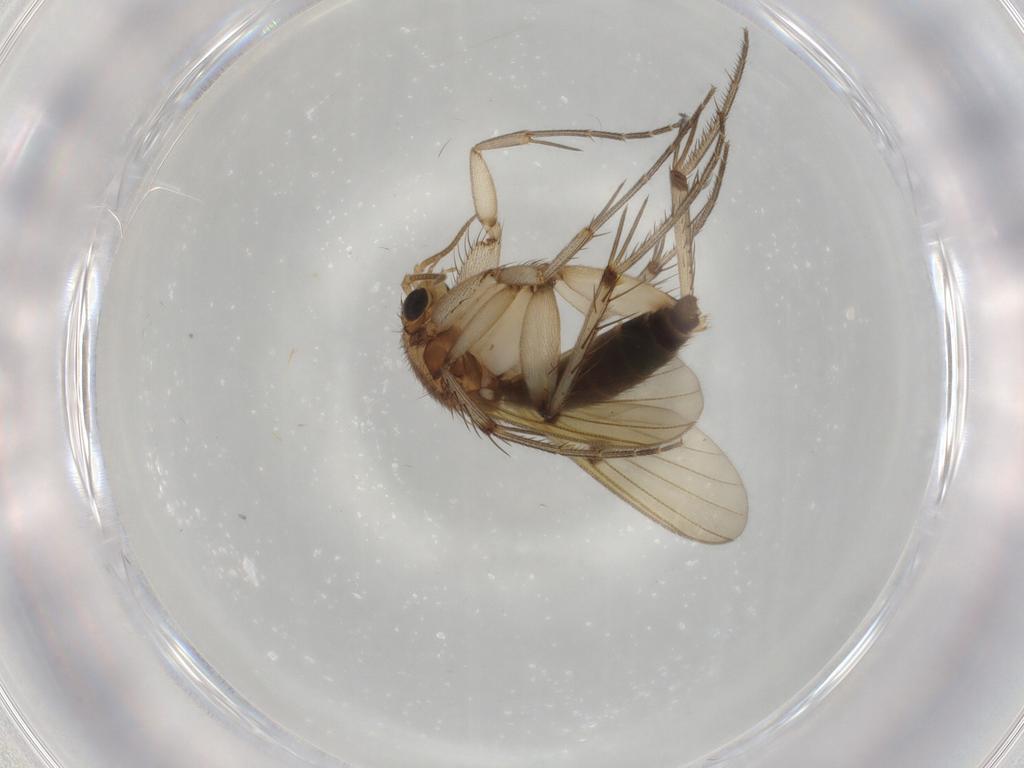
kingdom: Animalia
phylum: Arthropoda
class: Insecta
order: Diptera
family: Mycetophilidae
